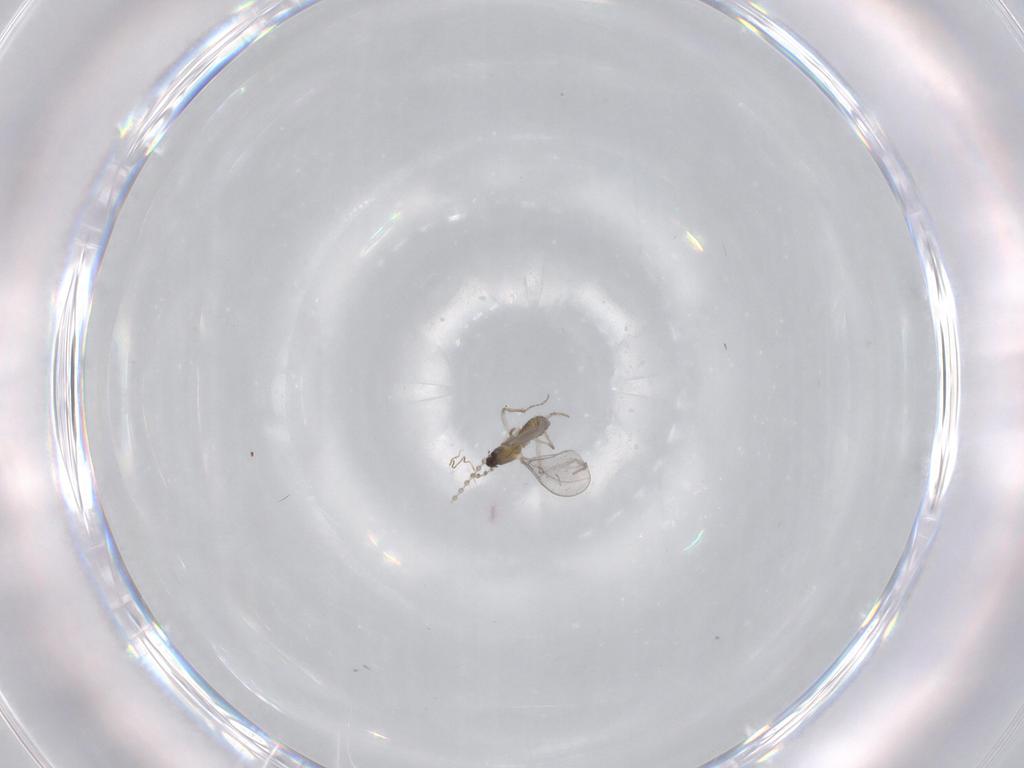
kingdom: Animalia
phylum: Arthropoda
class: Insecta
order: Diptera
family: Cecidomyiidae
